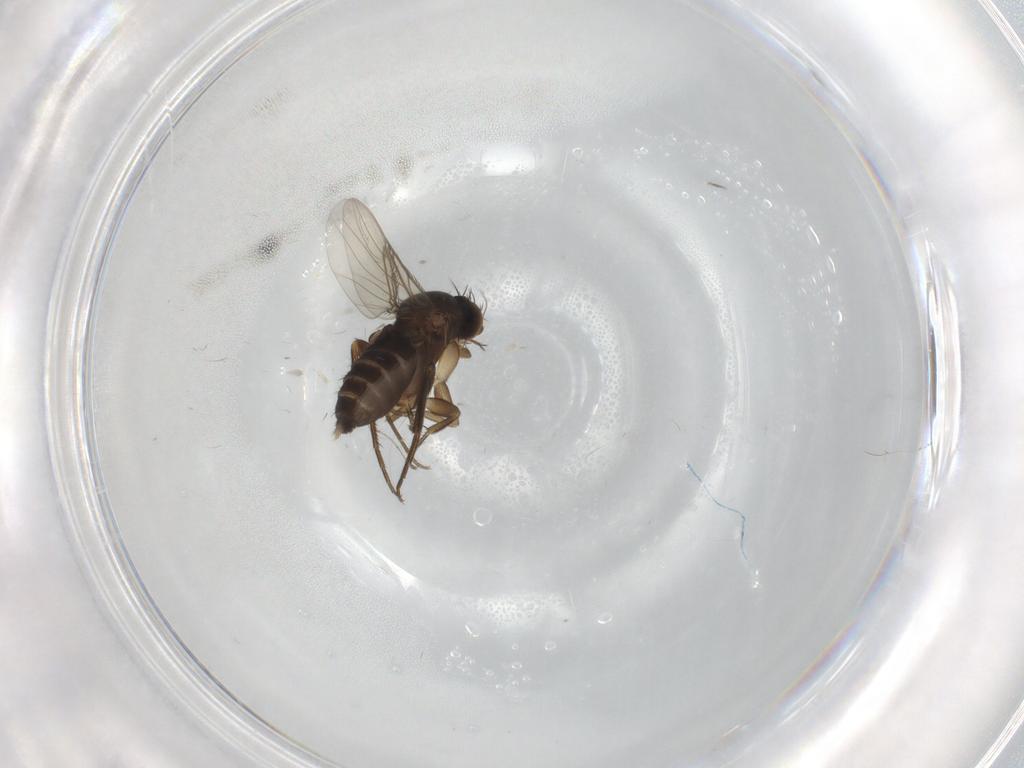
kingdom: Animalia
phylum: Arthropoda
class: Insecta
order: Diptera
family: Phoridae
